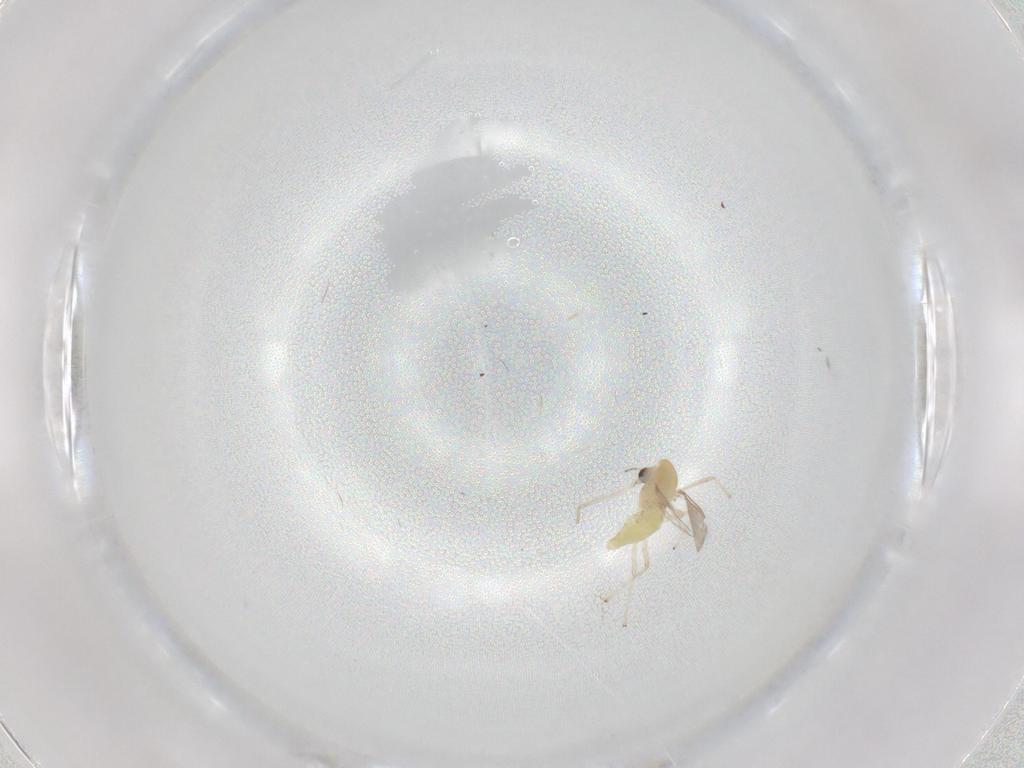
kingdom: Animalia
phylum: Arthropoda
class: Insecta
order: Diptera
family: Chironomidae
